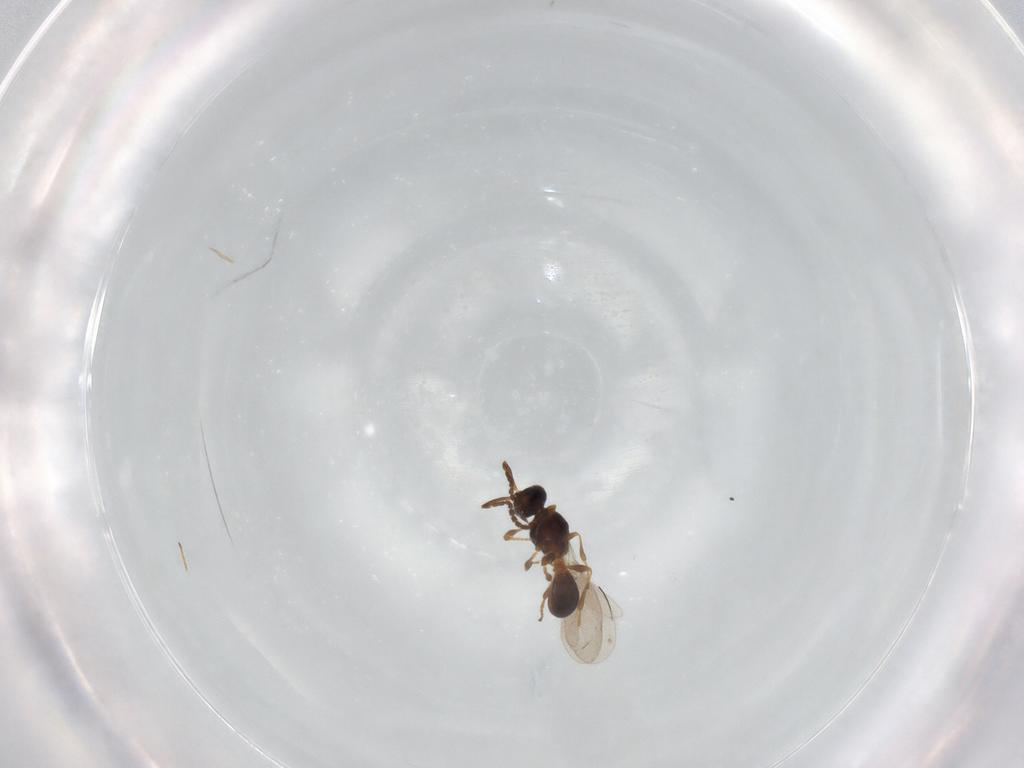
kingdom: Animalia
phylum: Arthropoda
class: Insecta
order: Hymenoptera
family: Platygastridae
